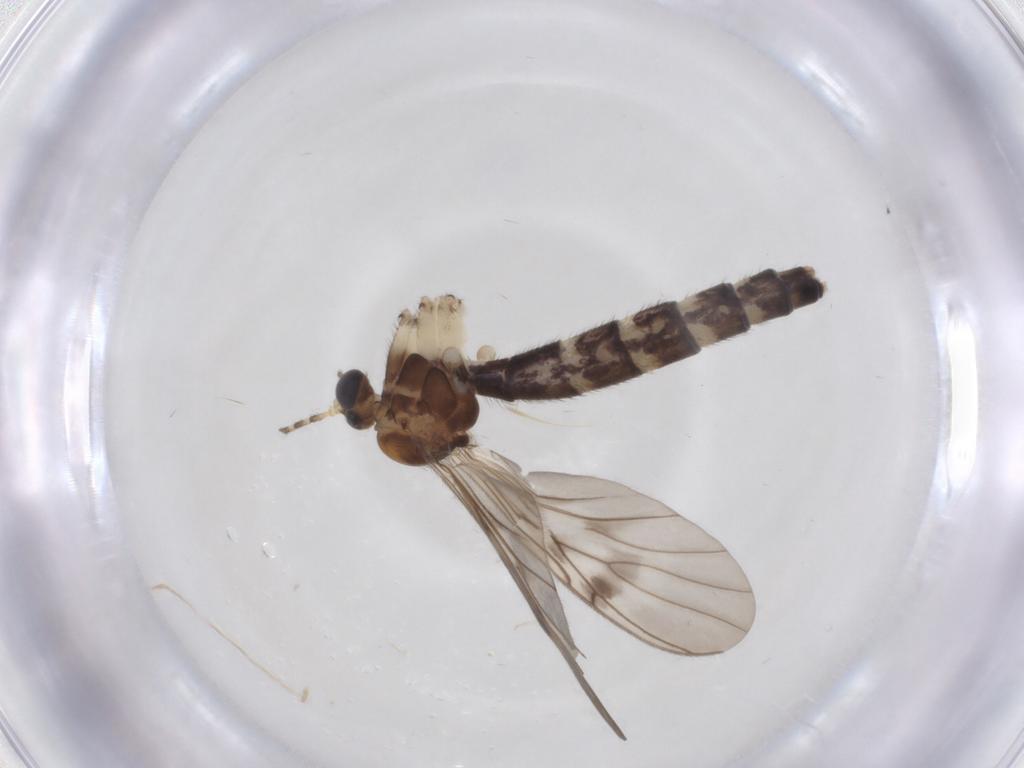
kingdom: Animalia
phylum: Arthropoda
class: Insecta
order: Diptera
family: Keroplatidae
